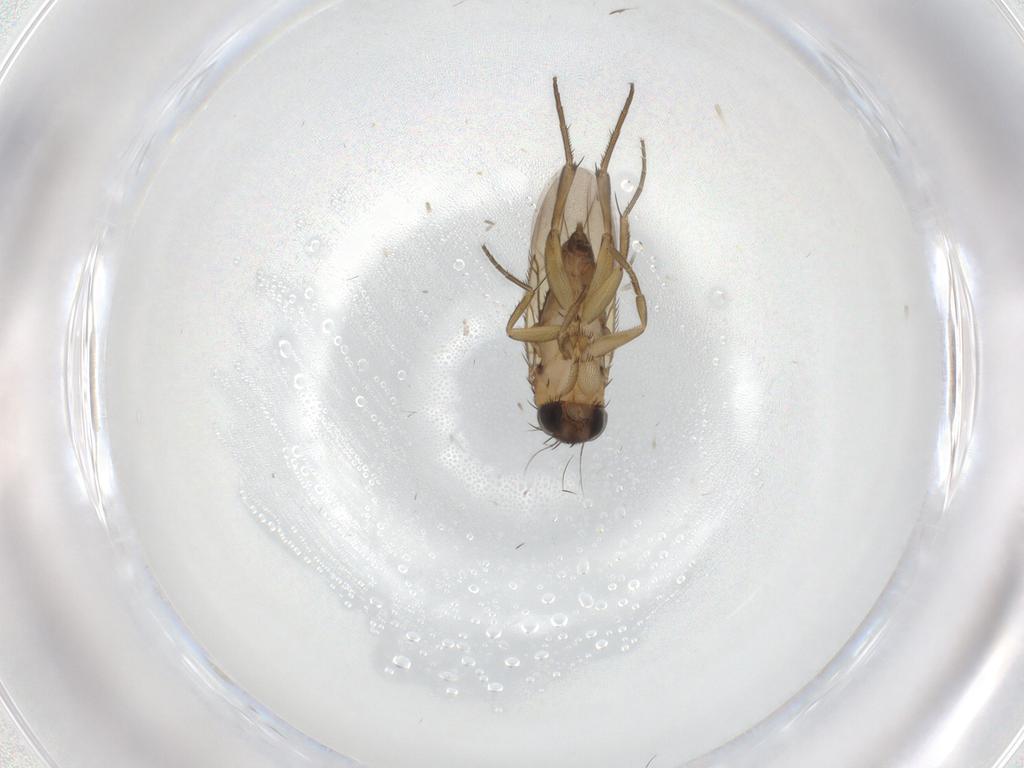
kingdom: Animalia
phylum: Arthropoda
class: Insecta
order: Diptera
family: Phoridae
